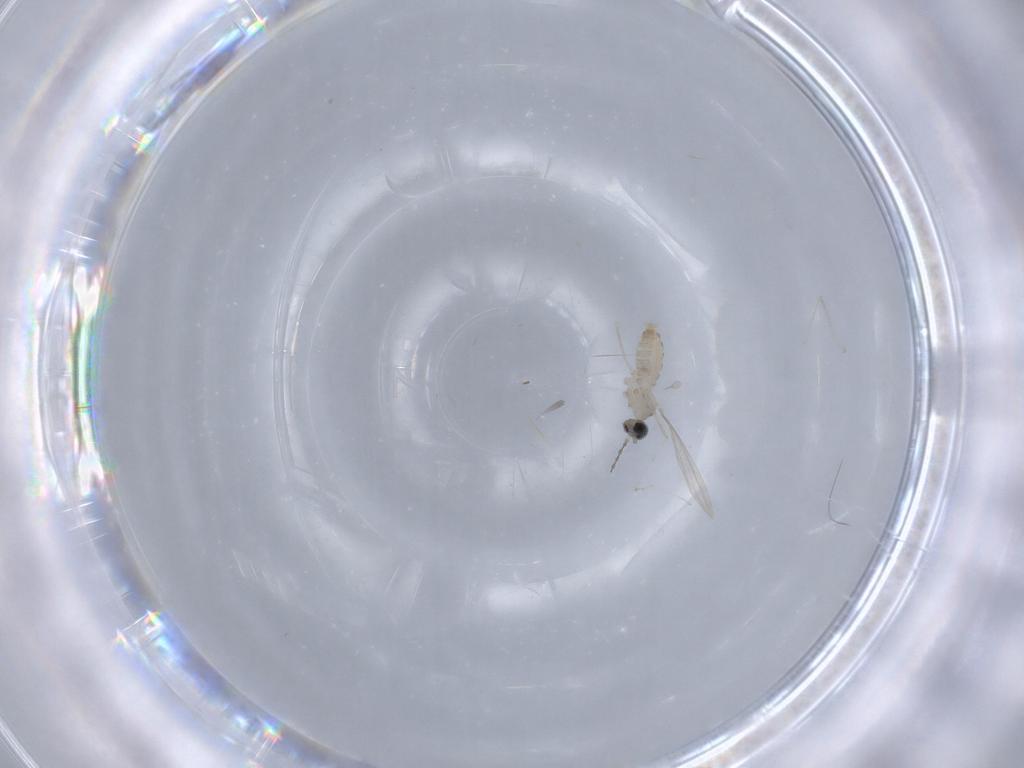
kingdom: Animalia
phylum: Arthropoda
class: Insecta
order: Diptera
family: Cecidomyiidae
